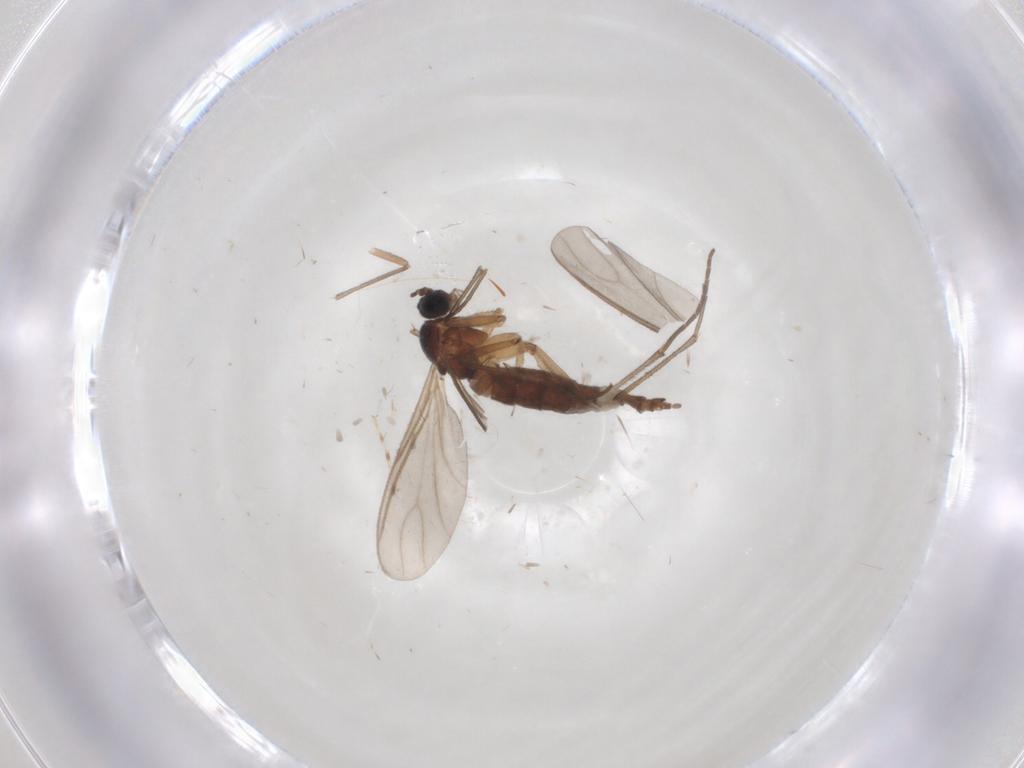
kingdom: Animalia
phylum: Arthropoda
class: Insecta
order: Diptera
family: Sciaridae
